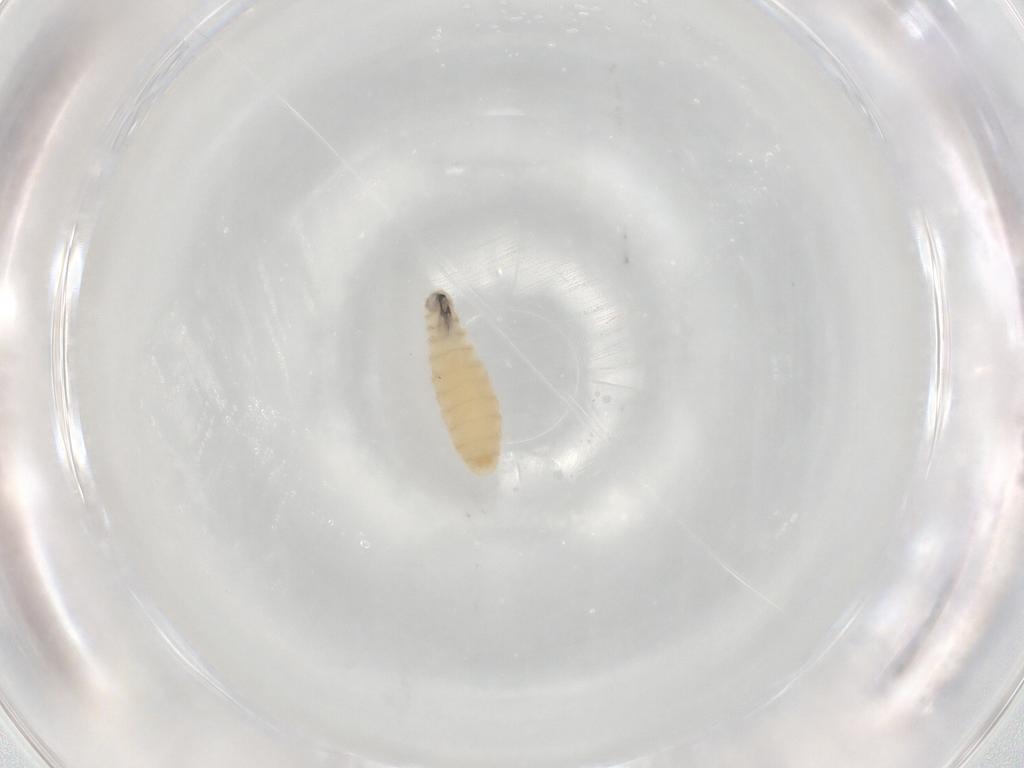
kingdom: Animalia
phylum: Arthropoda
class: Insecta
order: Diptera
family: Sarcophagidae
